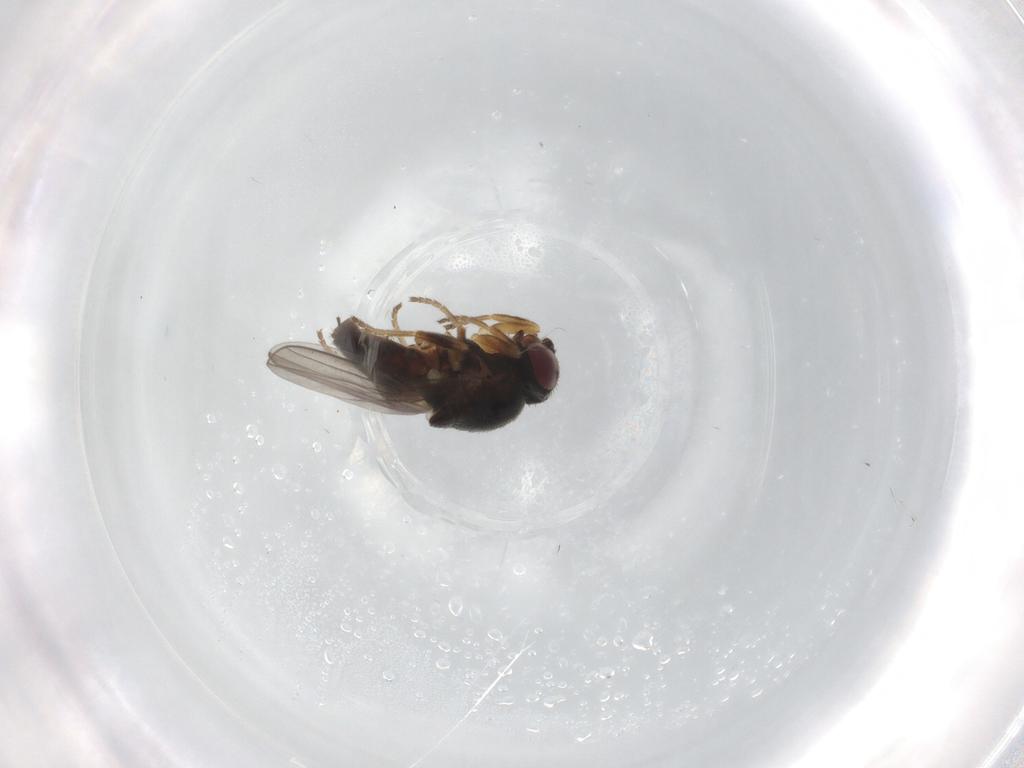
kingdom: Animalia
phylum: Arthropoda
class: Insecta
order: Diptera
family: Chloropidae
